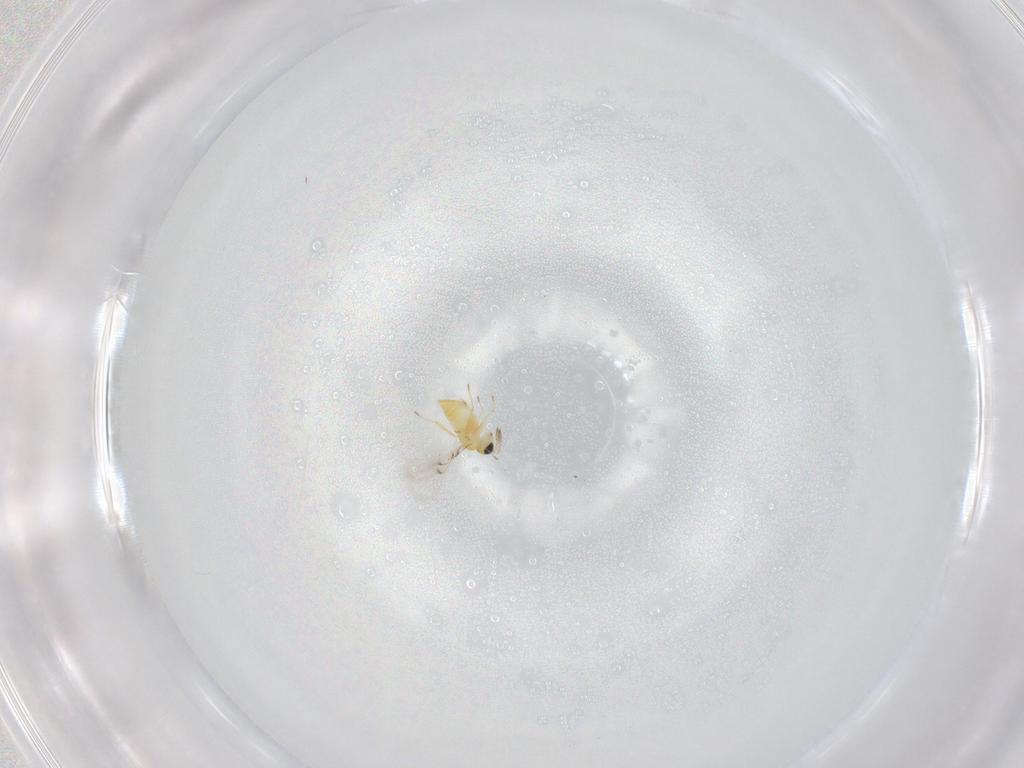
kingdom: Animalia
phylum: Arthropoda
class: Insecta
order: Hymenoptera
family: Trichogrammatidae
